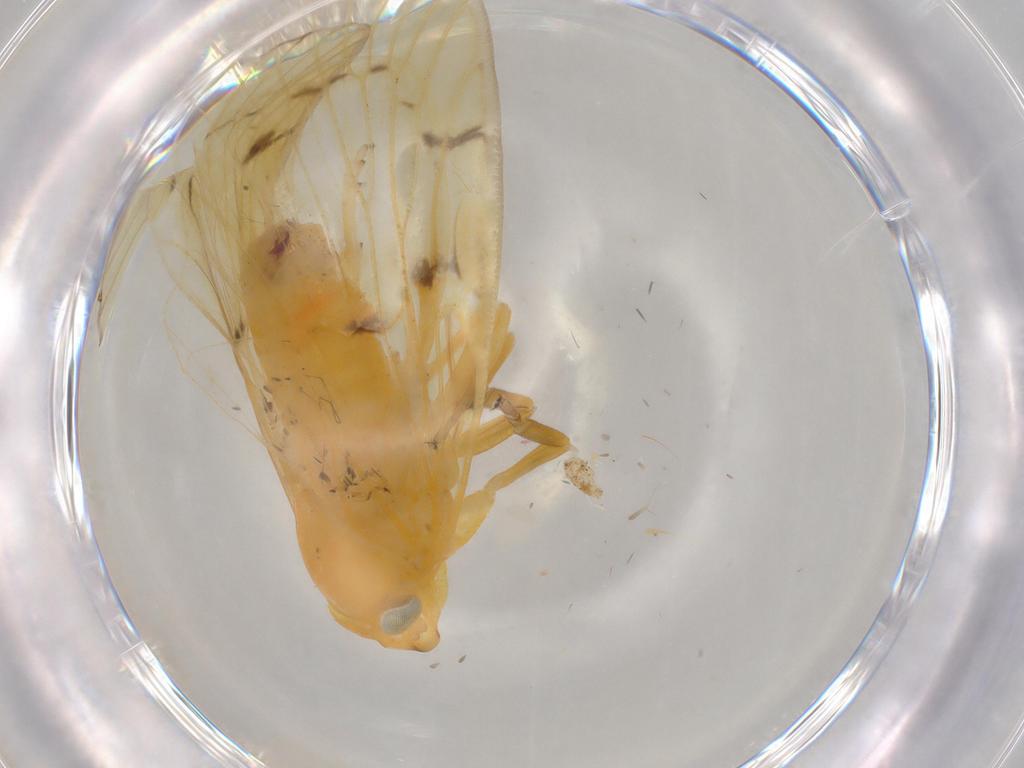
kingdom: Animalia
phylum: Arthropoda
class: Insecta
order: Hemiptera
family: Cixiidae
